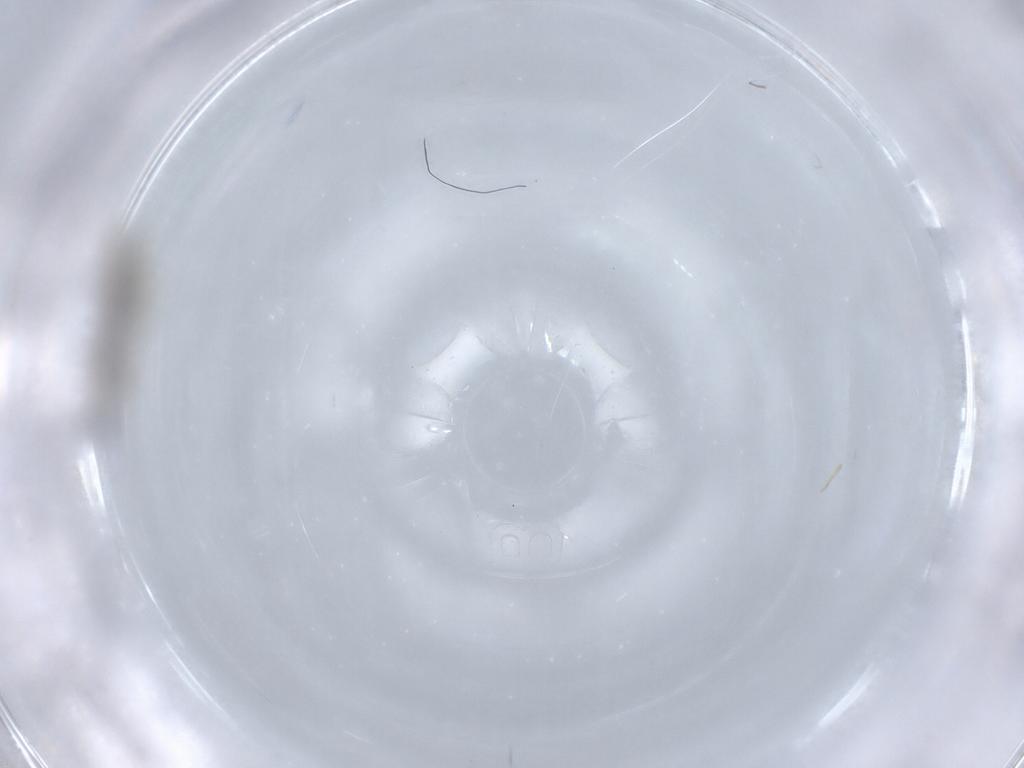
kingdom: Animalia
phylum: Arthropoda
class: Insecta
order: Diptera
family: Cecidomyiidae
